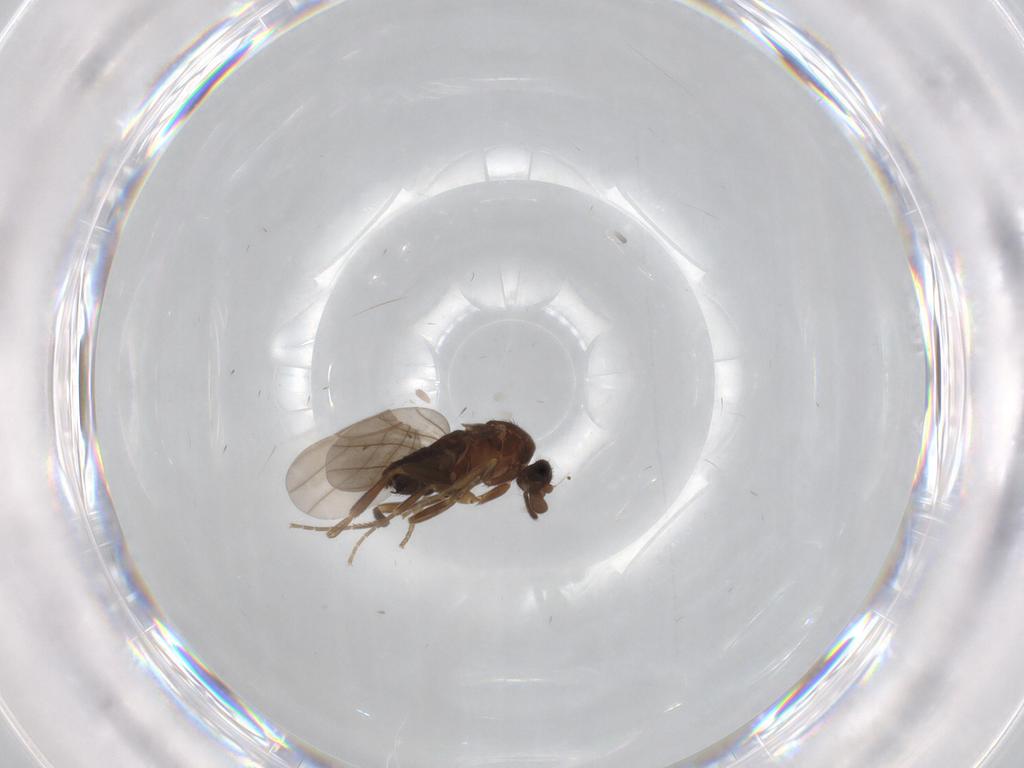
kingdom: Animalia
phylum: Arthropoda
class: Insecta
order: Diptera
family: Phoridae
